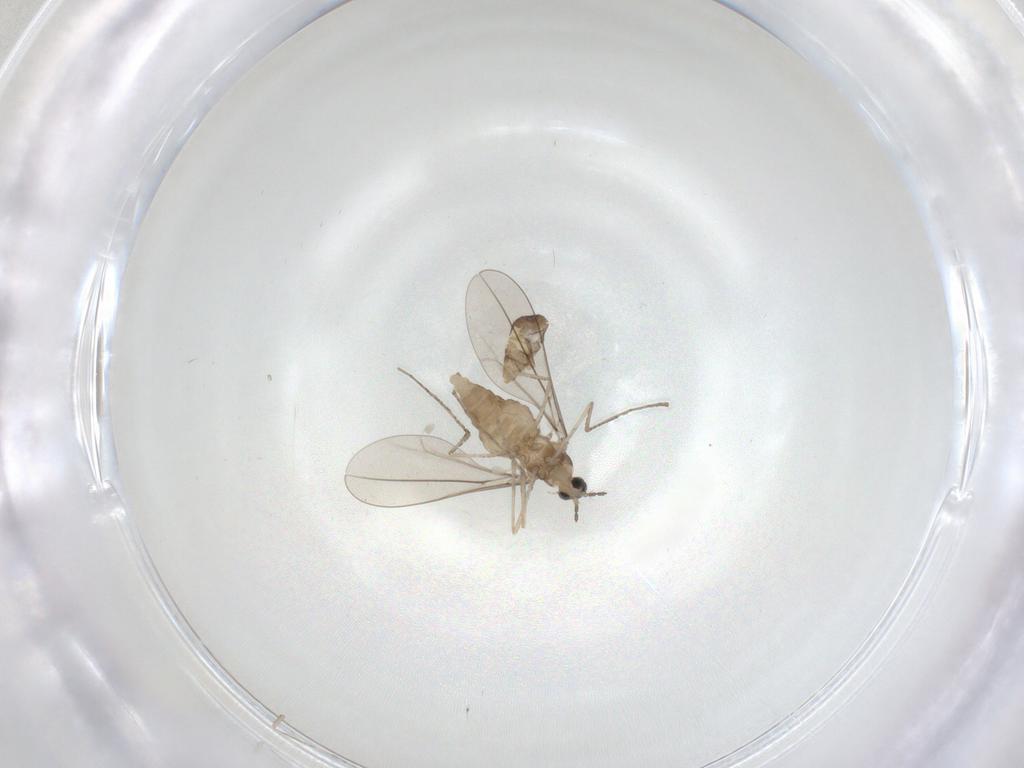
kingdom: Animalia
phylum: Arthropoda
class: Insecta
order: Diptera
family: Cecidomyiidae
